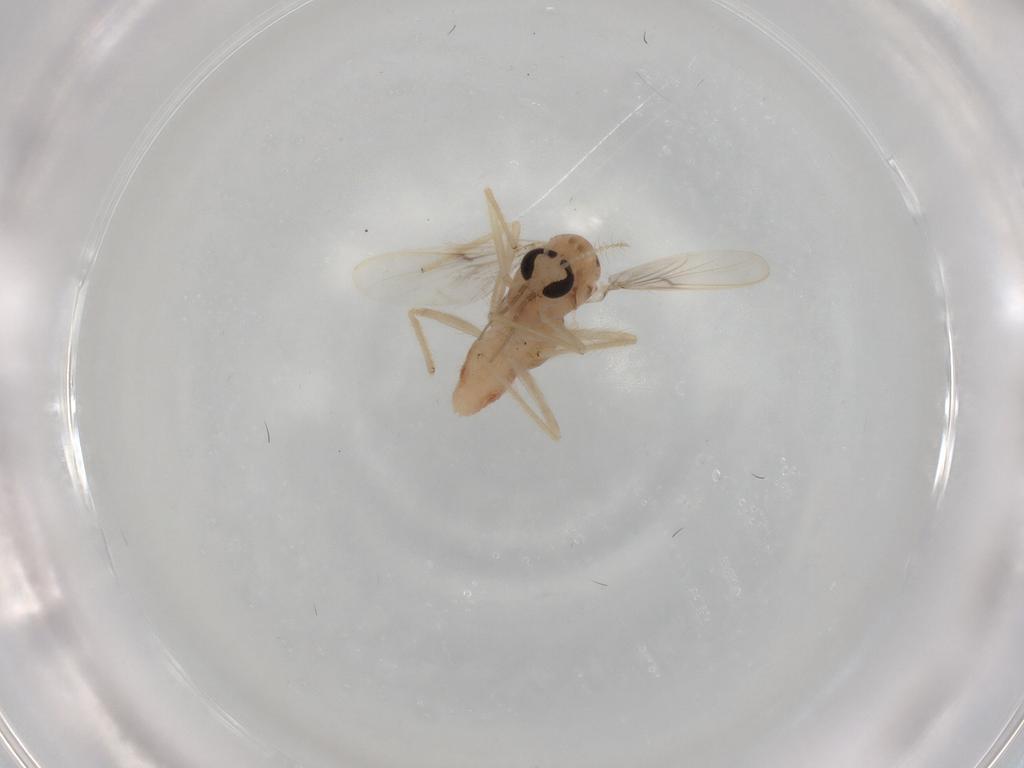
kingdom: Animalia
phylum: Arthropoda
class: Insecta
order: Diptera
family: Chironomidae
